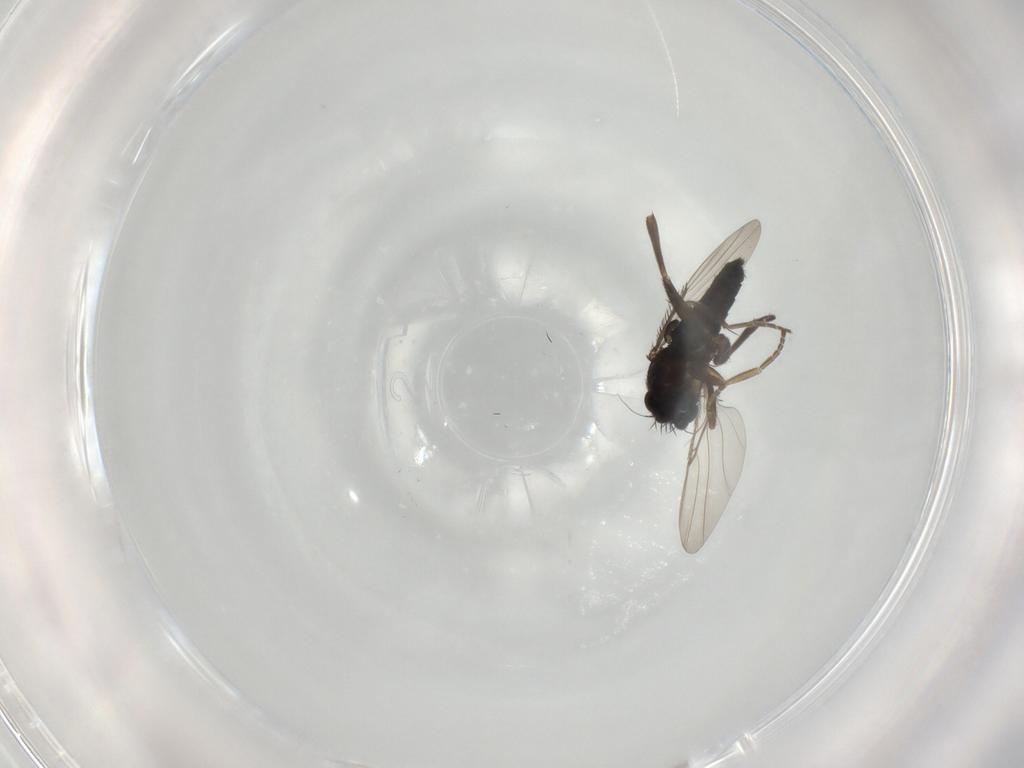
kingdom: Animalia
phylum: Arthropoda
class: Insecta
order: Diptera
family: Phoridae
